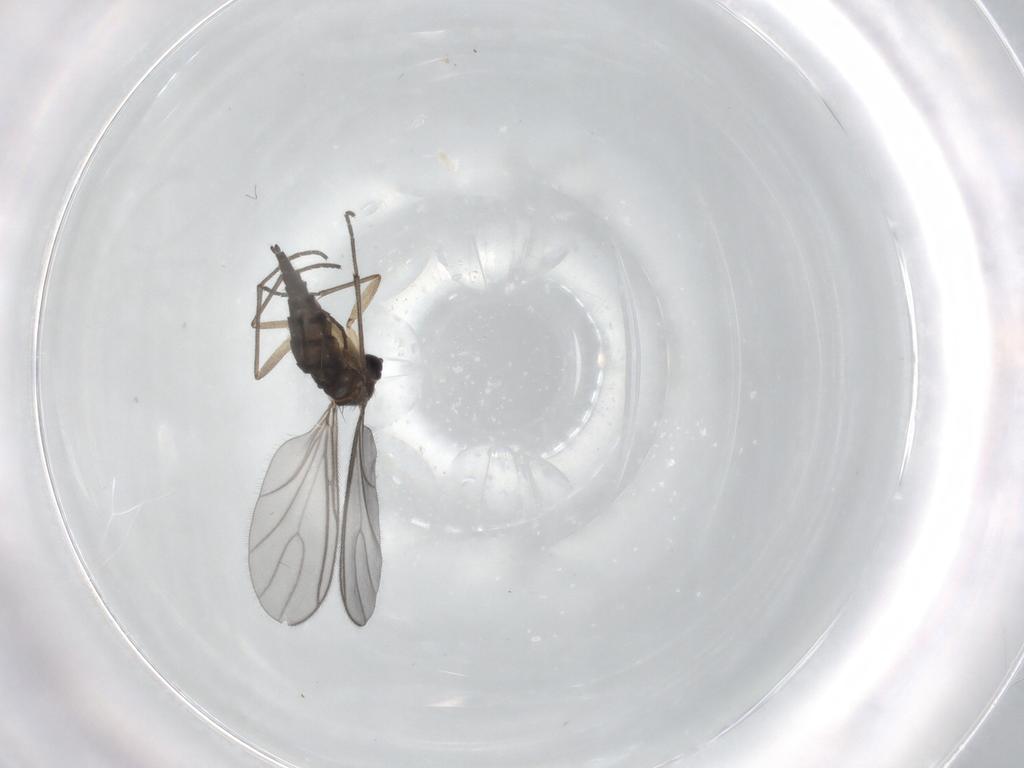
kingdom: Animalia
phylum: Arthropoda
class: Insecta
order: Diptera
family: Sciaridae
